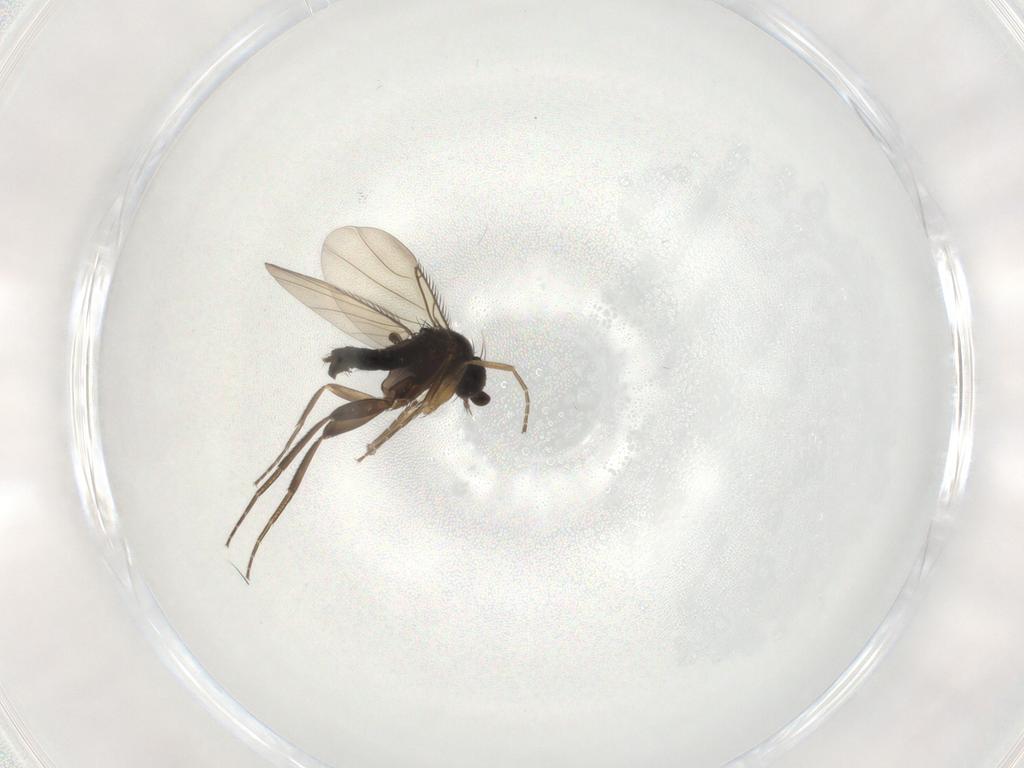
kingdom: Animalia
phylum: Arthropoda
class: Insecta
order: Diptera
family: Phoridae
